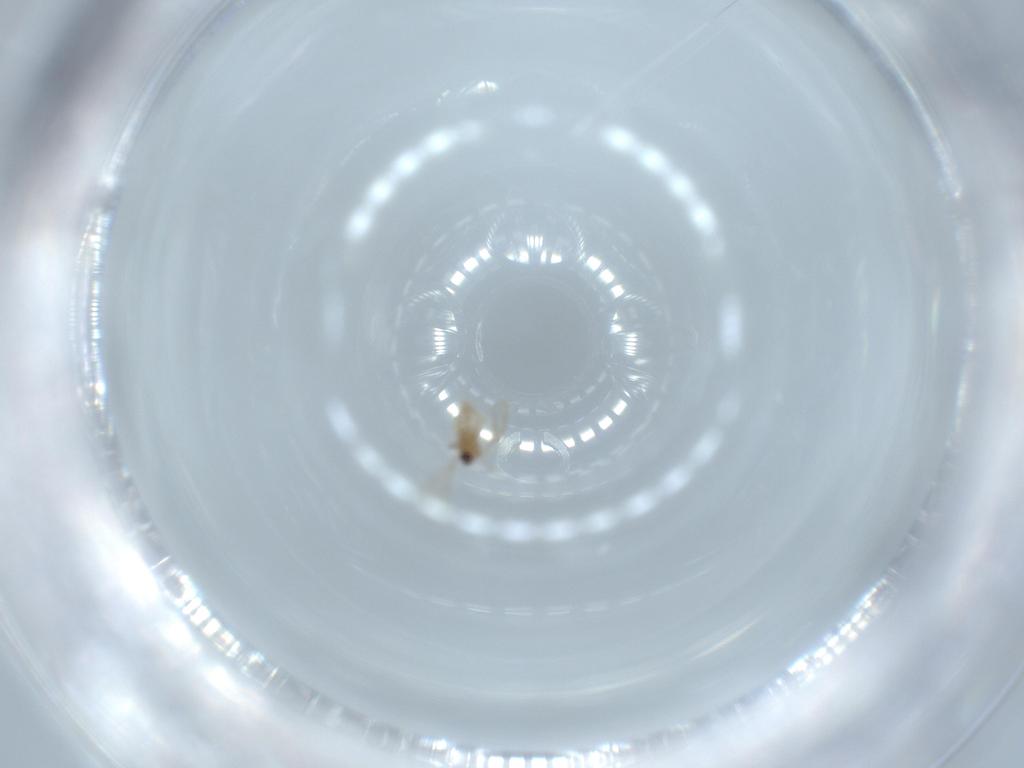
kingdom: Animalia
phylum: Arthropoda
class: Insecta
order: Diptera
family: Cecidomyiidae
